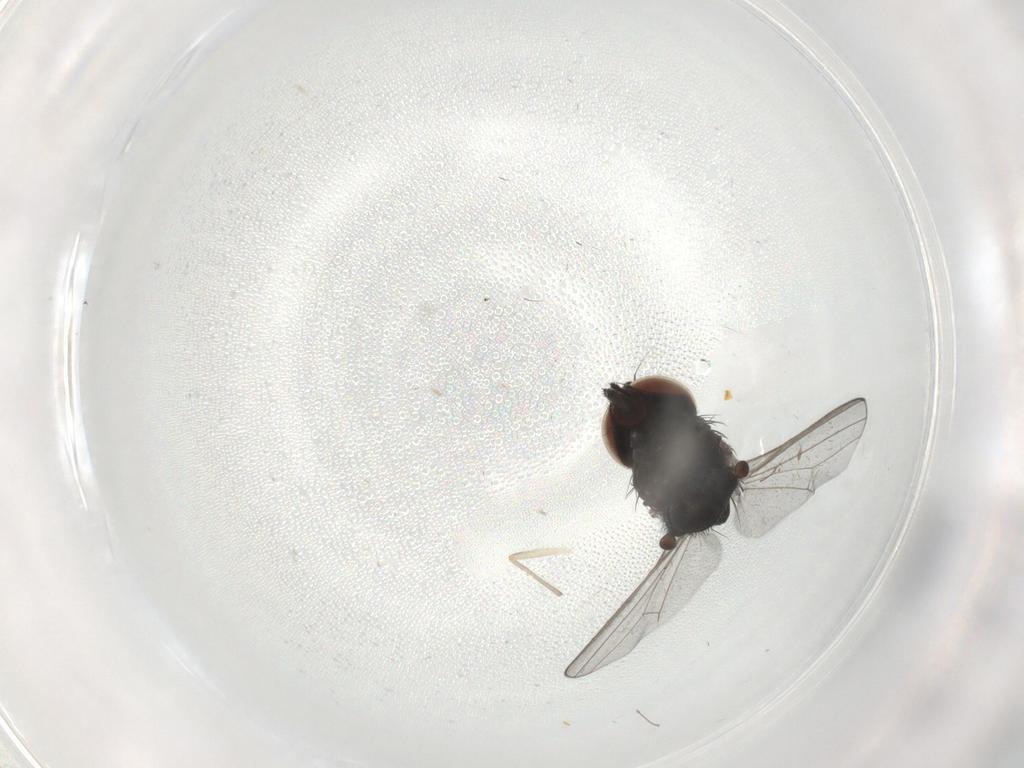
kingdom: Animalia
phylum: Arthropoda
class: Insecta
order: Diptera
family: Milichiidae
